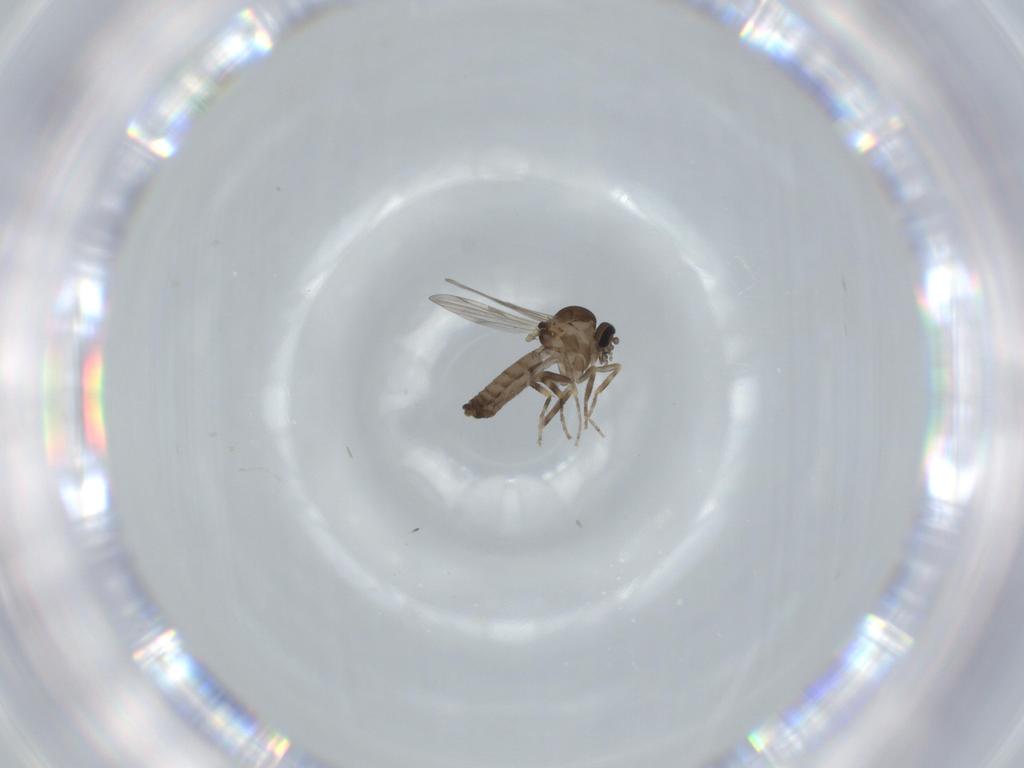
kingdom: Animalia
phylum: Arthropoda
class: Insecta
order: Diptera
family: Ceratopogonidae
